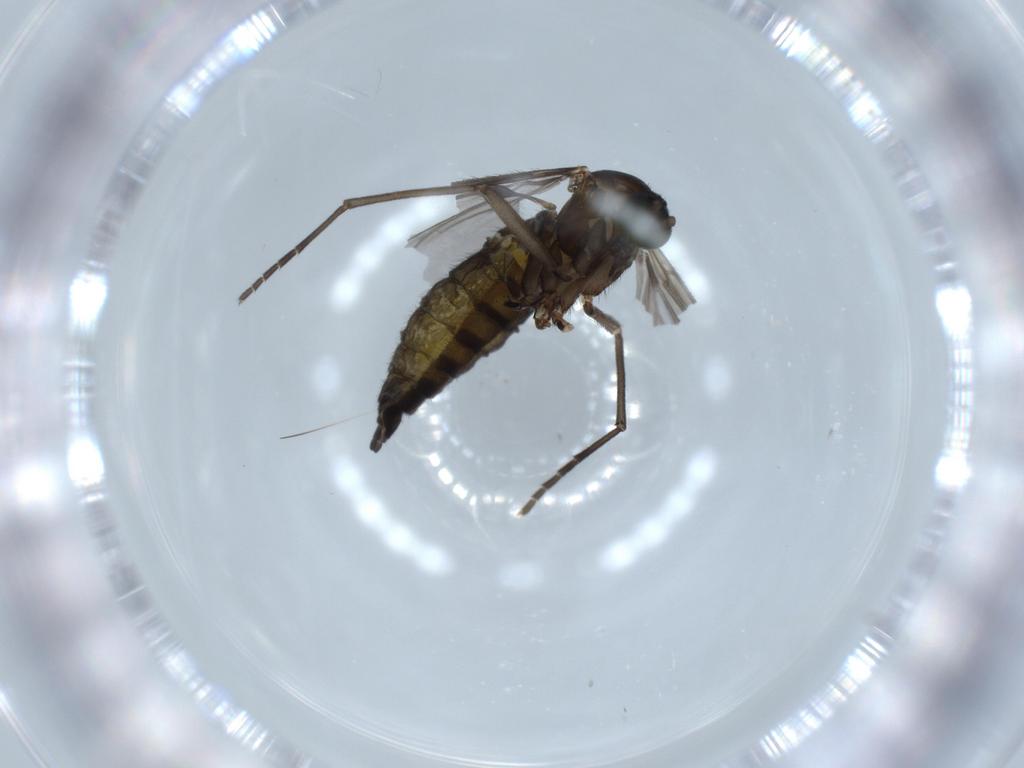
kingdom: Animalia
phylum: Arthropoda
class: Insecta
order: Diptera
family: Sciaridae
